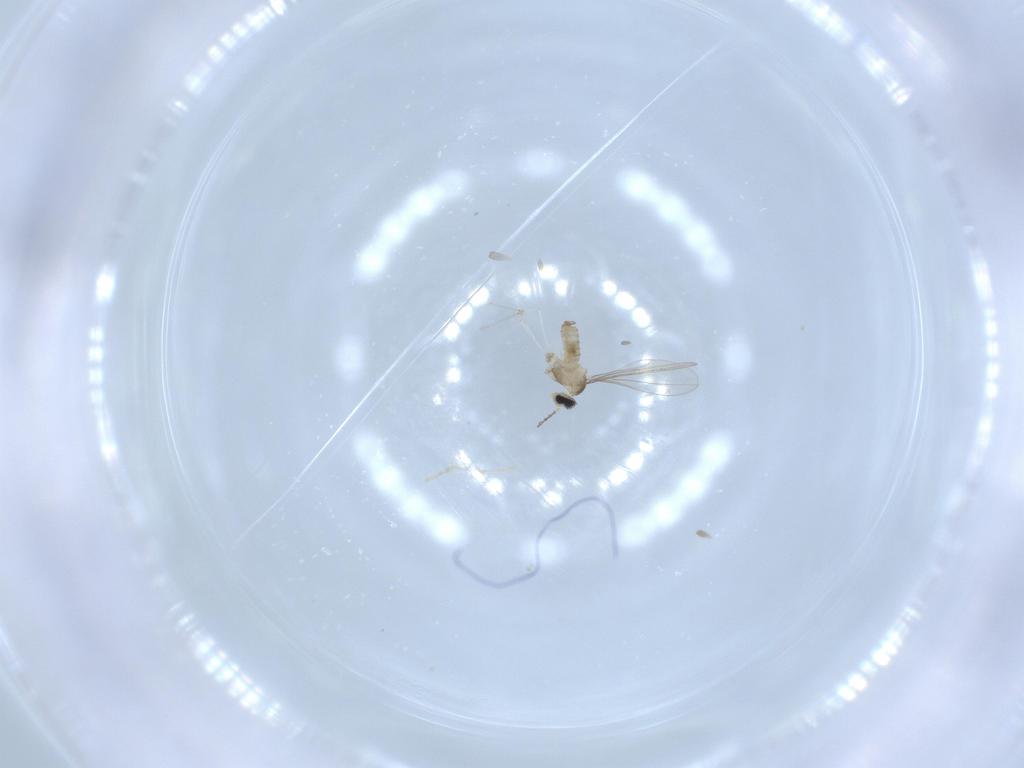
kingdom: Animalia
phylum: Arthropoda
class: Insecta
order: Diptera
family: Cecidomyiidae
